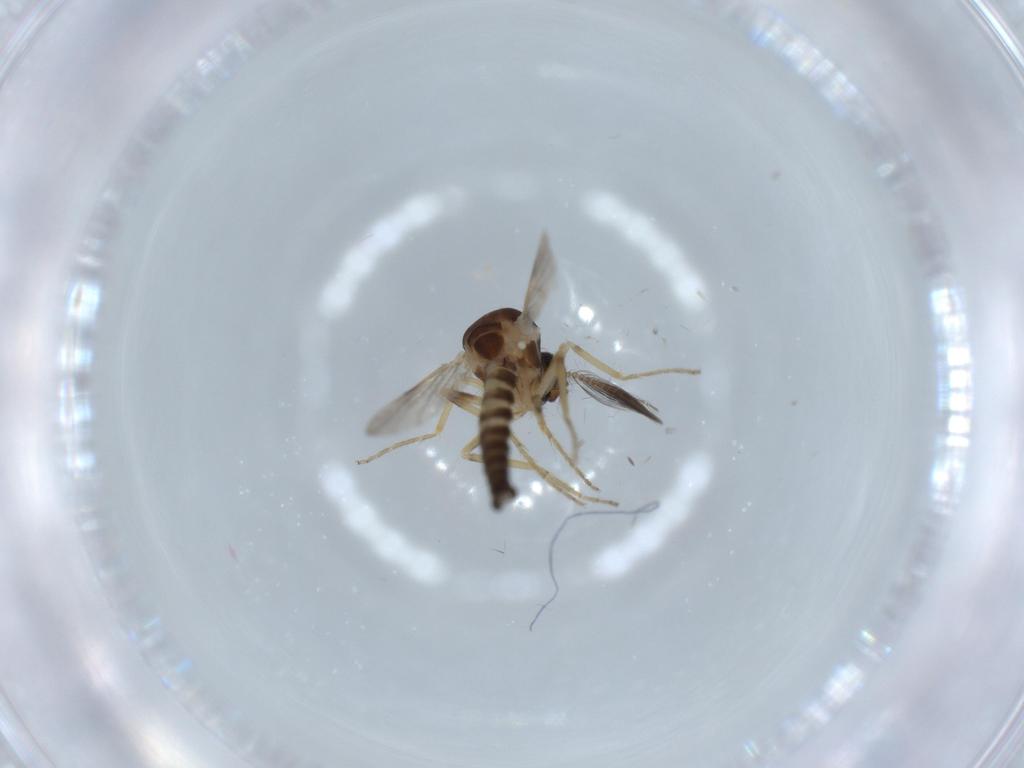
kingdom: Animalia
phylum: Arthropoda
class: Insecta
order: Diptera
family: Ceratopogonidae
